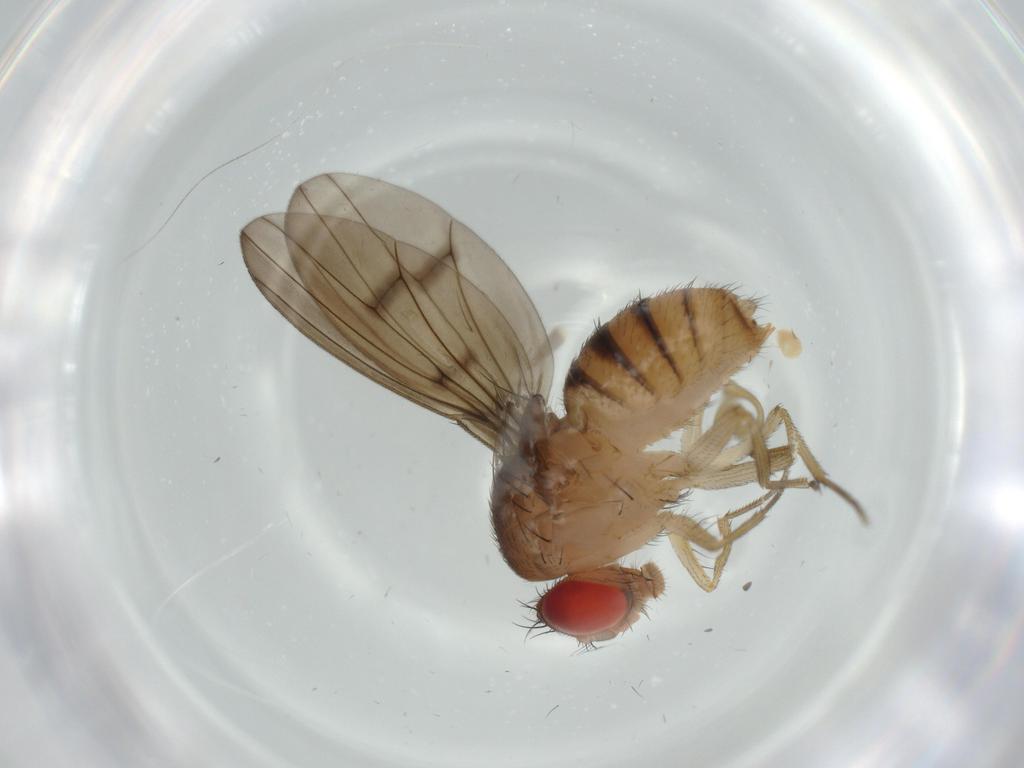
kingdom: Animalia
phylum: Arthropoda
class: Insecta
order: Diptera
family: Drosophilidae
